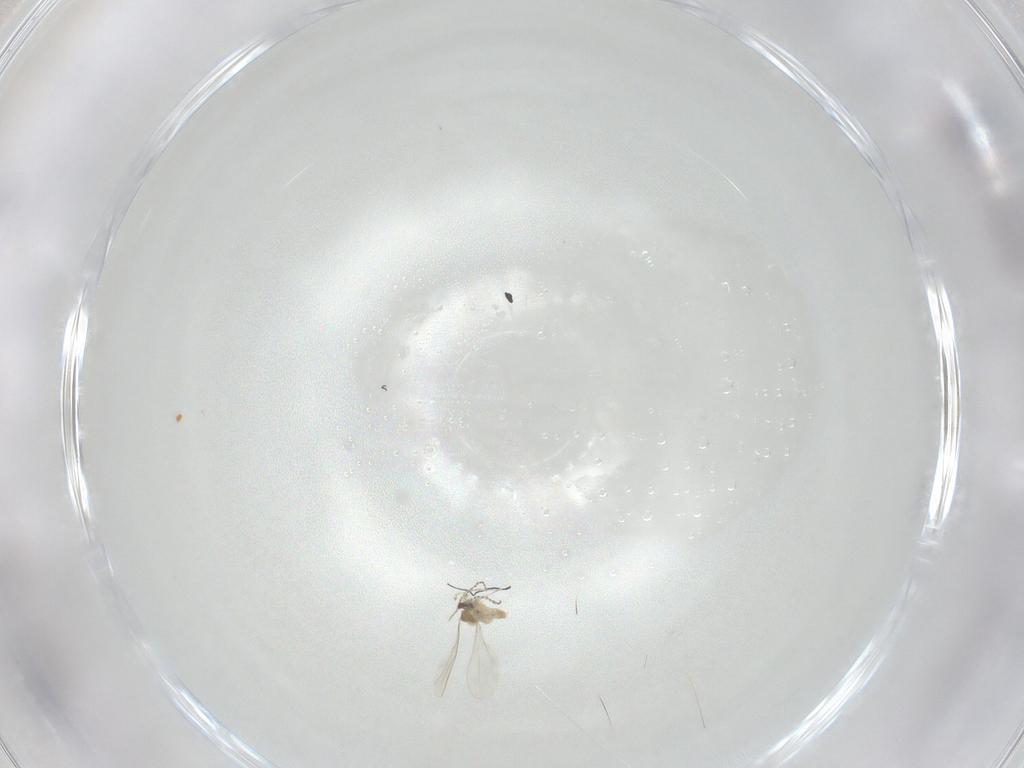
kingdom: Animalia
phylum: Arthropoda
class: Insecta
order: Diptera
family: Cecidomyiidae
